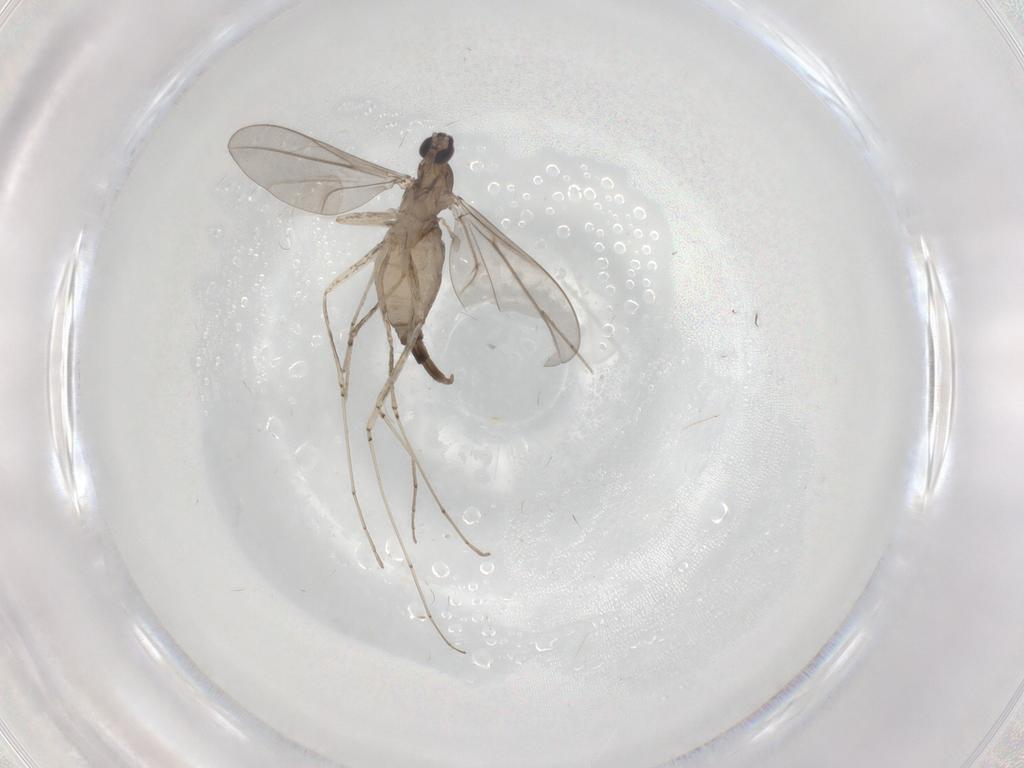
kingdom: Animalia
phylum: Arthropoda
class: Insecta
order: Diptera
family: Cecidomyiidae
